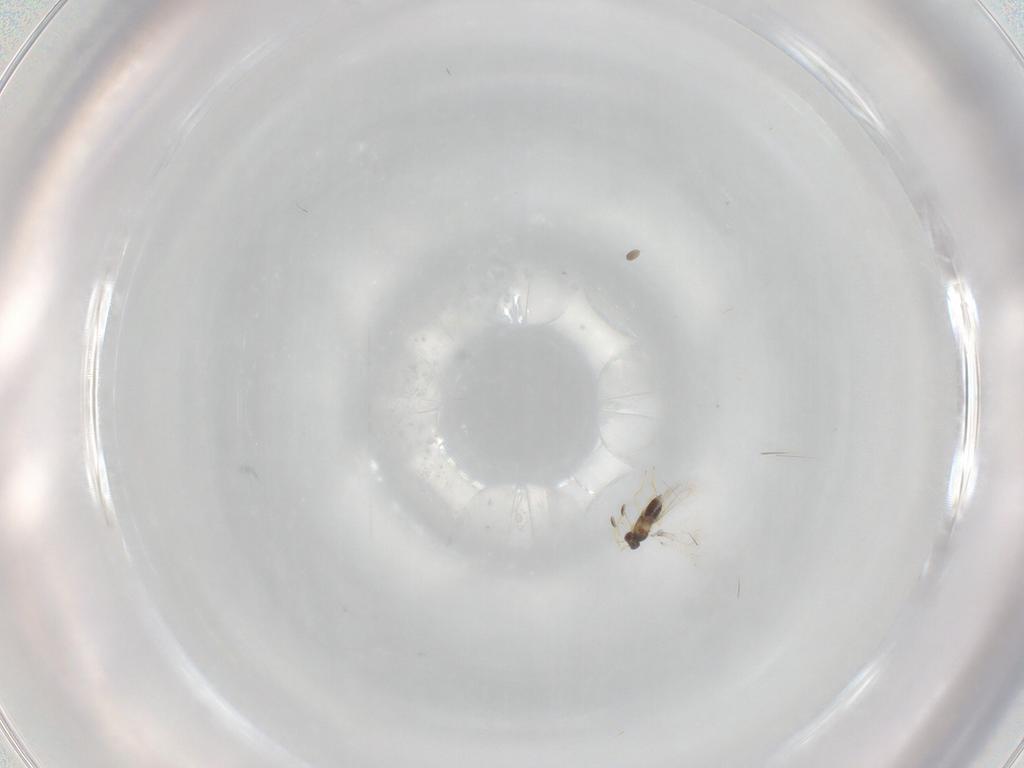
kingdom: Animalia
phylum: Arthropoda
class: Insecta
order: Hymenoptera
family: Mymaridae
